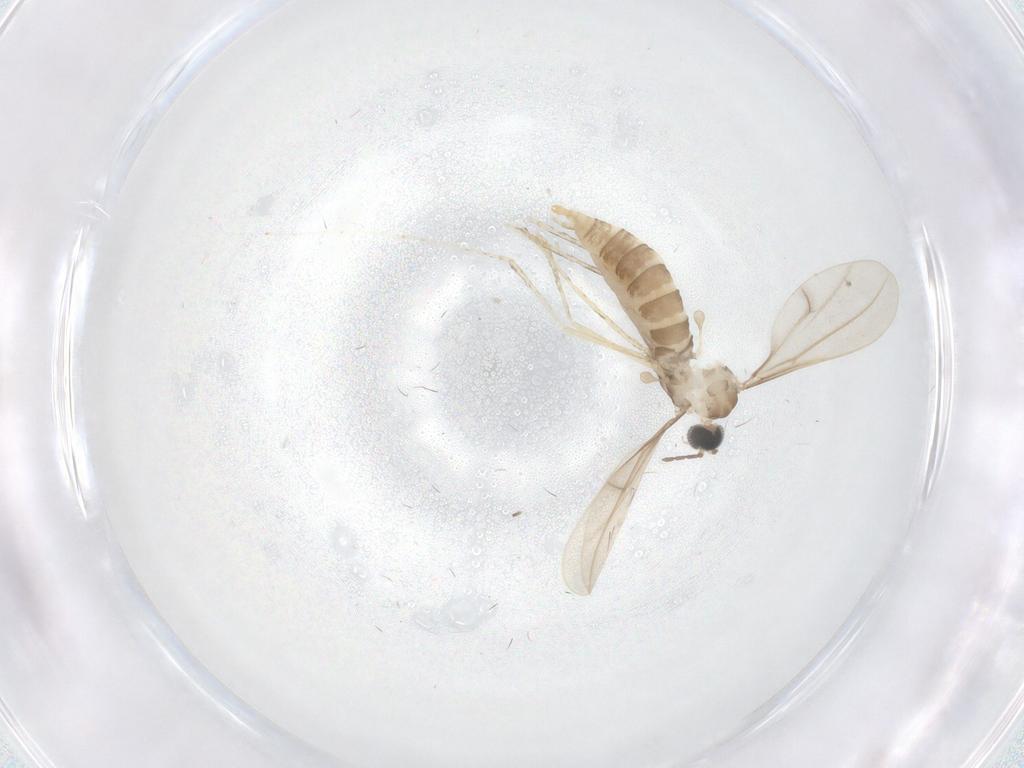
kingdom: Animalia
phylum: Arthropoda
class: Insecta
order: Diptera
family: Cecidomyiidae
